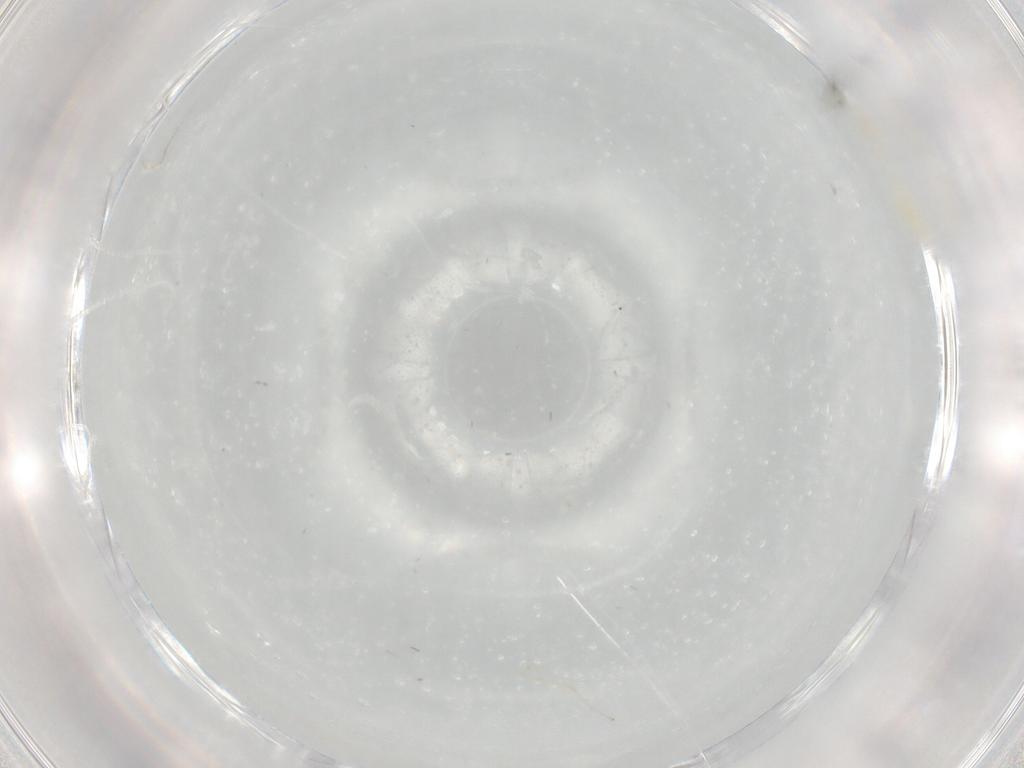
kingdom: Animalia
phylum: Arthropoda
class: Insecta
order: Diptera
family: Cecidomyiidae
